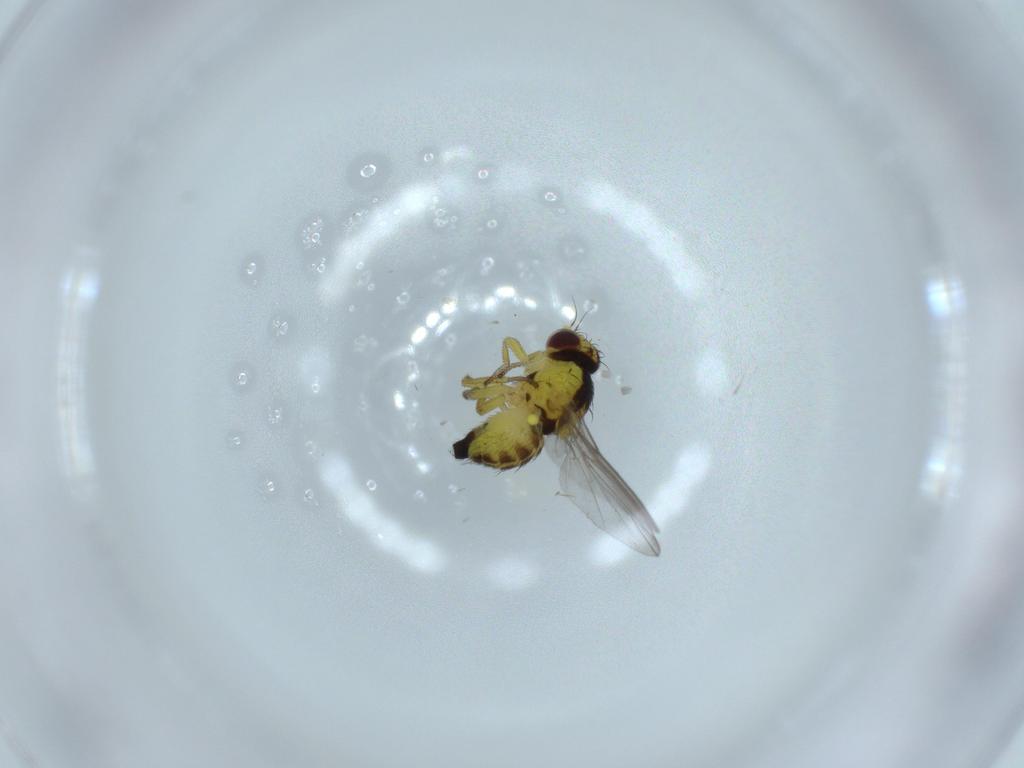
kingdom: Animalia
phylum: Arthropoda
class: Insecta
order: Diptera
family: Agromyzidae
